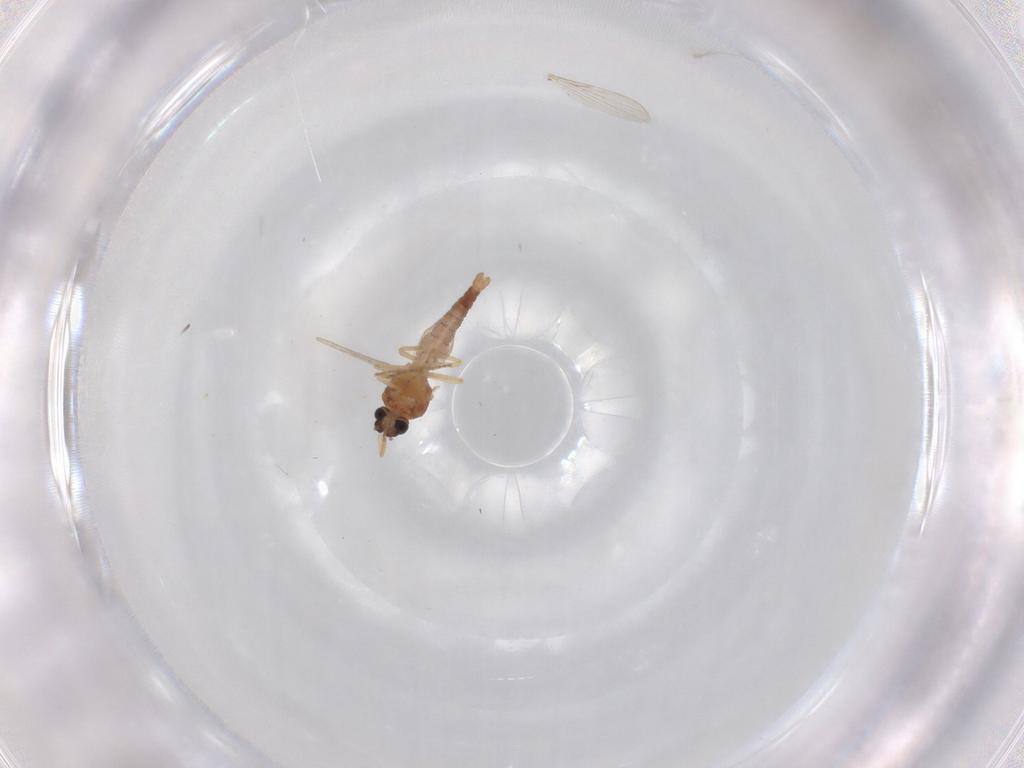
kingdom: Animalia
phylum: Arthropoda
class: Insecta
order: Diptera
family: Ceratopogonidae
